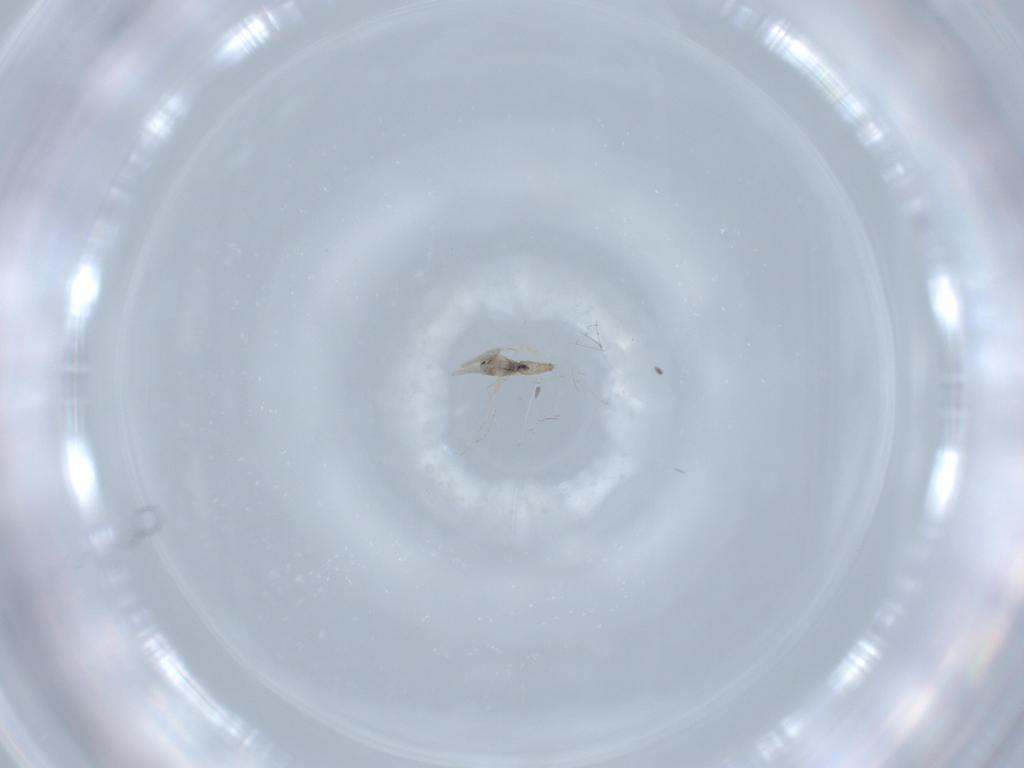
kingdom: Animalia
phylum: Arthropoda
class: Insecta
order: Diptera
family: Cecidomyiidae
